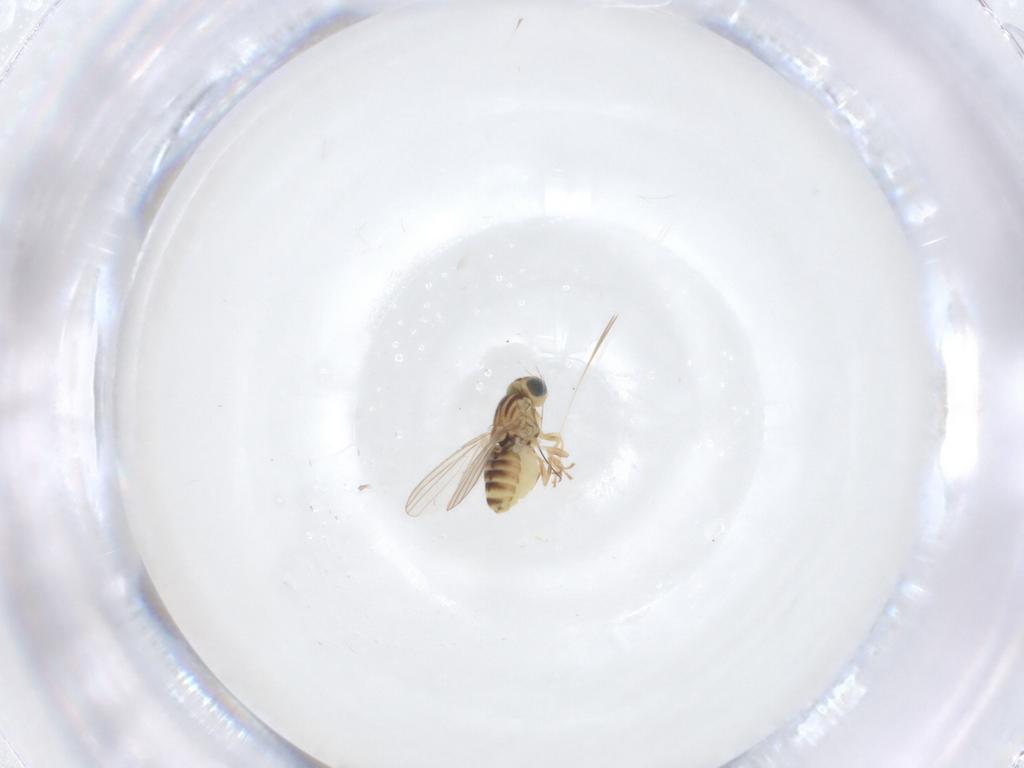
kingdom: Animalia
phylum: Arthropoda
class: Insecta
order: Diptera
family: Chyromyidae
